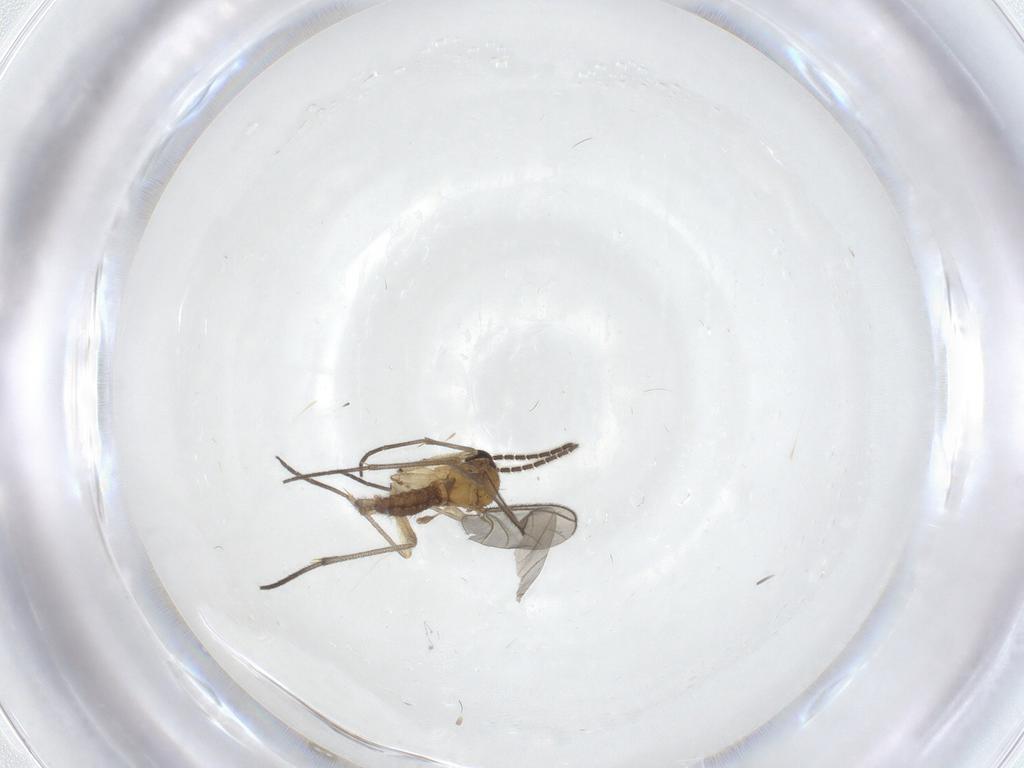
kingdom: Animalia
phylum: Arthropoda
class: Insecta
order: Diptera
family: Sciaridae
